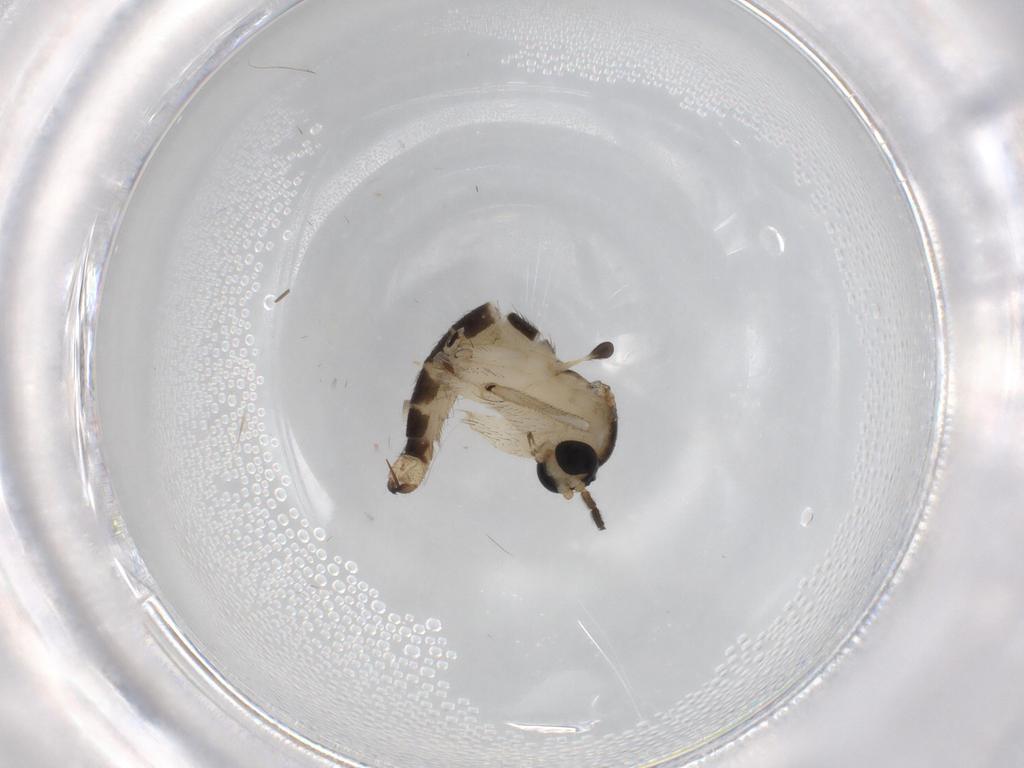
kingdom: Animalia
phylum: Arthropoda
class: Insecta
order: Diptera
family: Sciaridae
